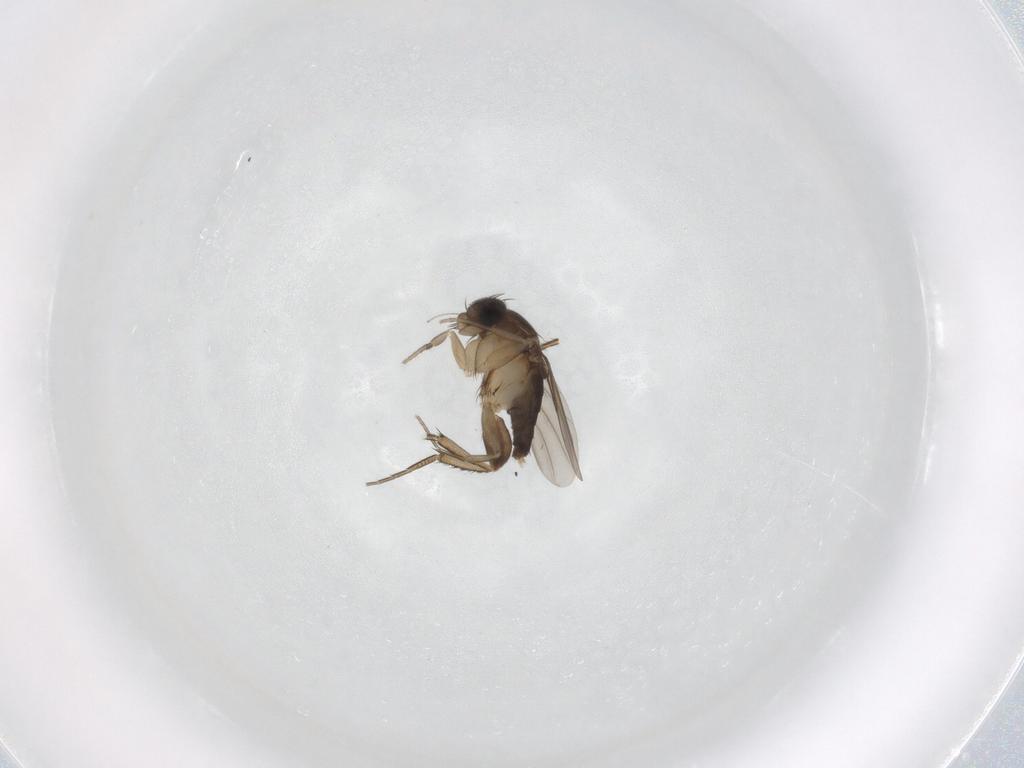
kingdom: Animalia
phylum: Arthropoda
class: Insecta
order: Diptera
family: Phoridae
